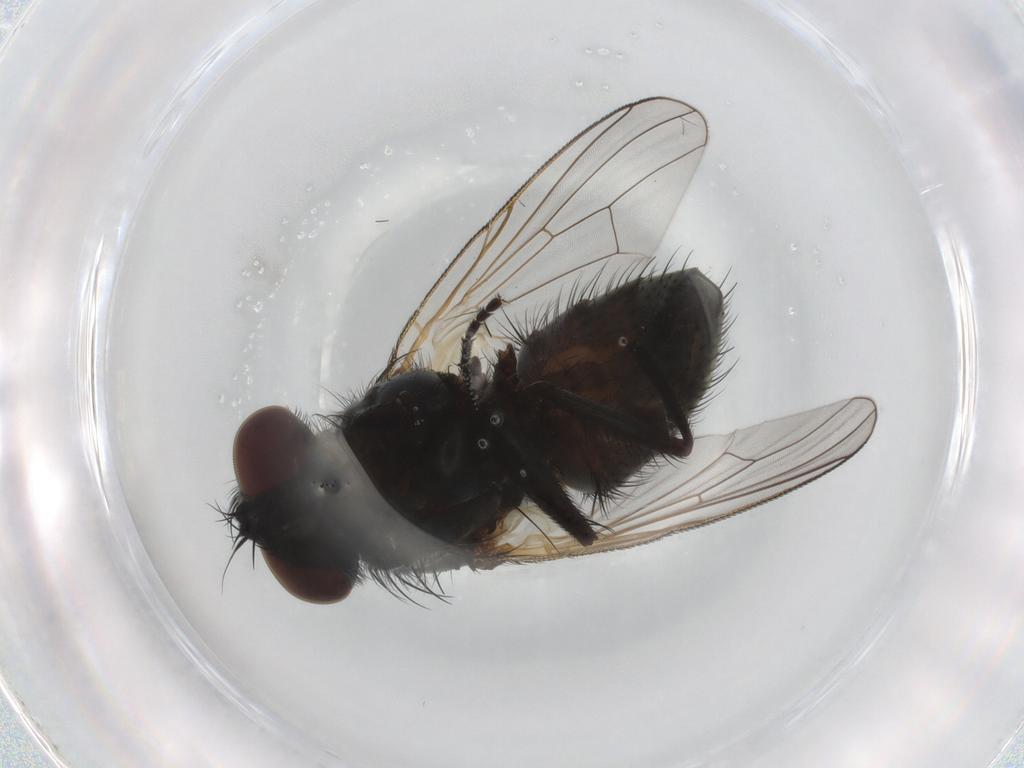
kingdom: Animalia
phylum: Arthropoda
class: Insecta
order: Diptera
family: Muscidae
